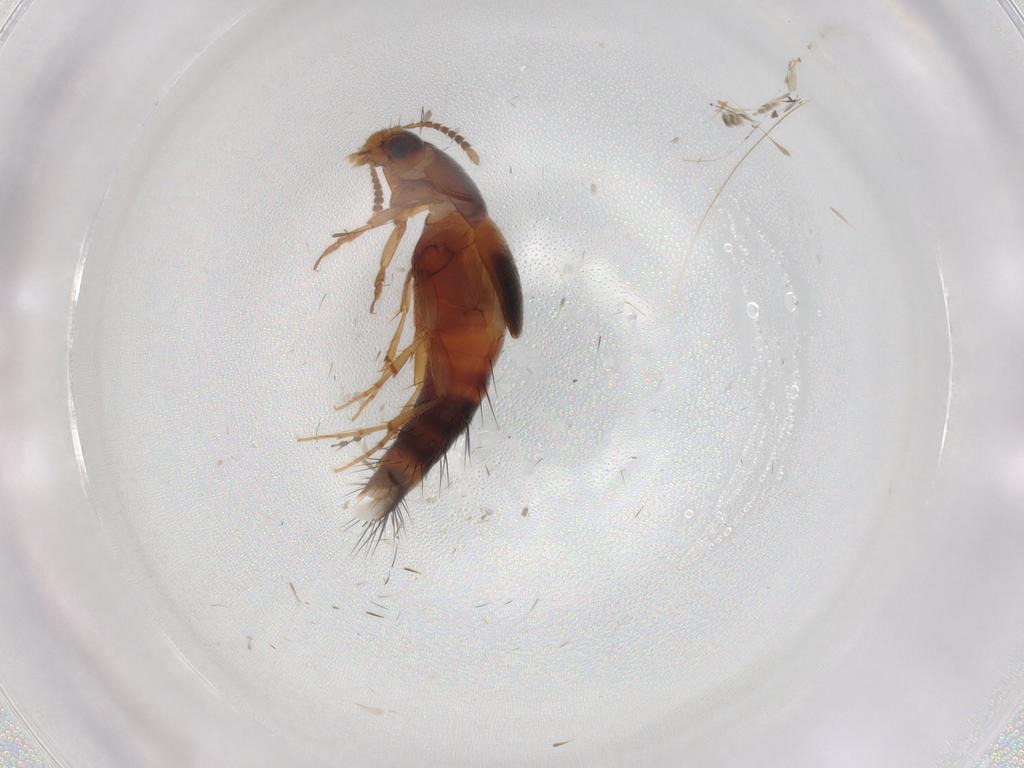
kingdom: Animalia
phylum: Arthropoda
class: Insecta
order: Coleoptera
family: Staphylinidae
